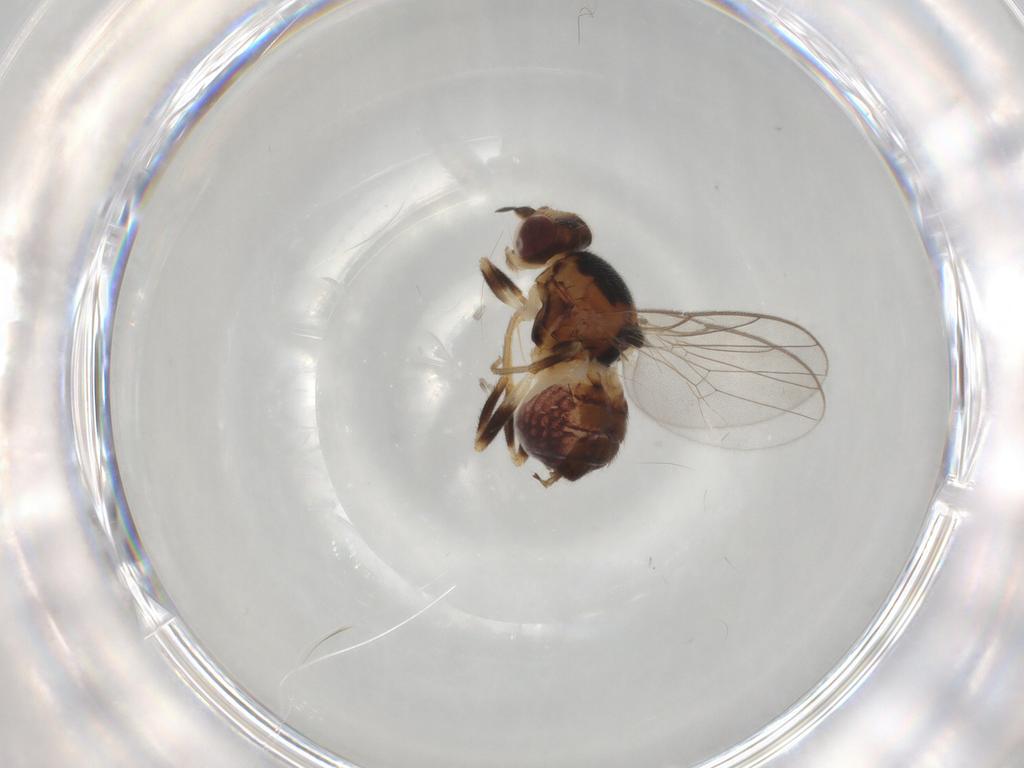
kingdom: Animalia
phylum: Arthropoda
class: Insecta
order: Diptera
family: Chloropidae
